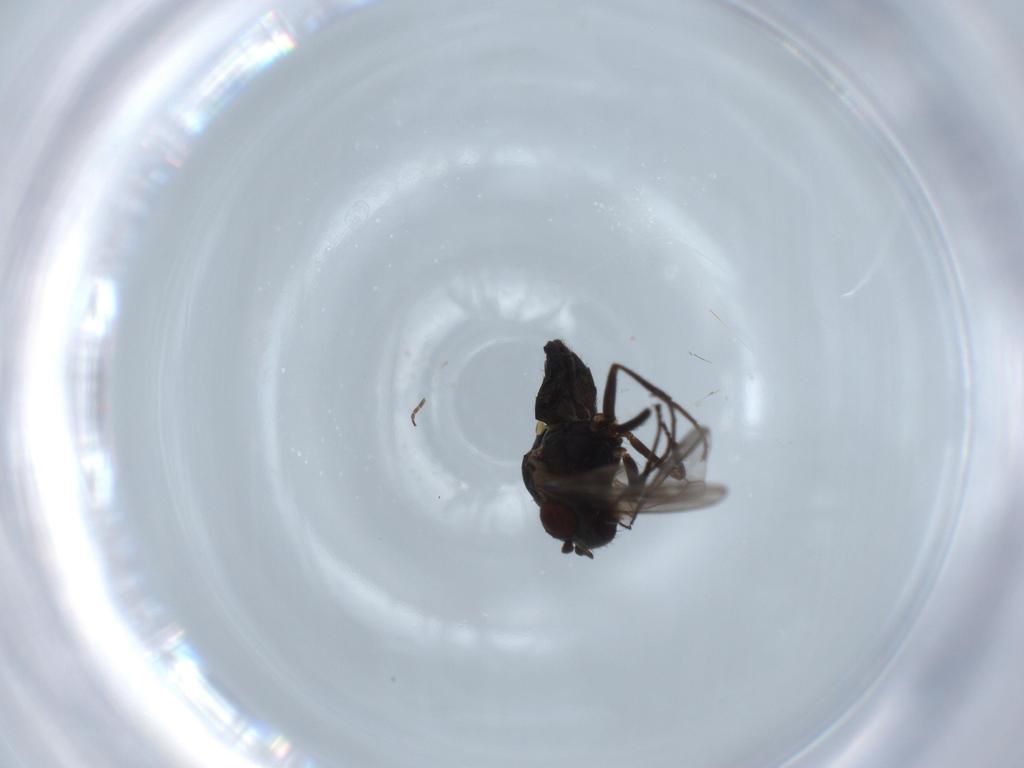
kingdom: Animalia
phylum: Arthropoda
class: Insecta
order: Diptera
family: Ephydridae
